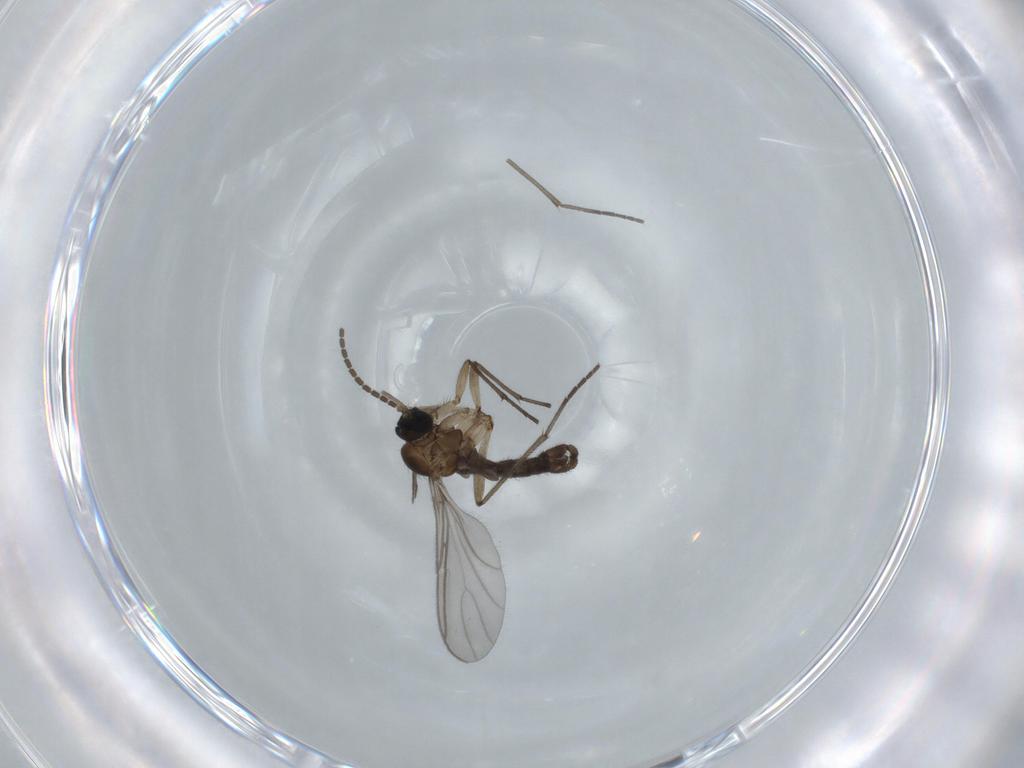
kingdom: Animalia
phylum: Arthropoda
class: Insecta
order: Diptera
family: Sciaridae
